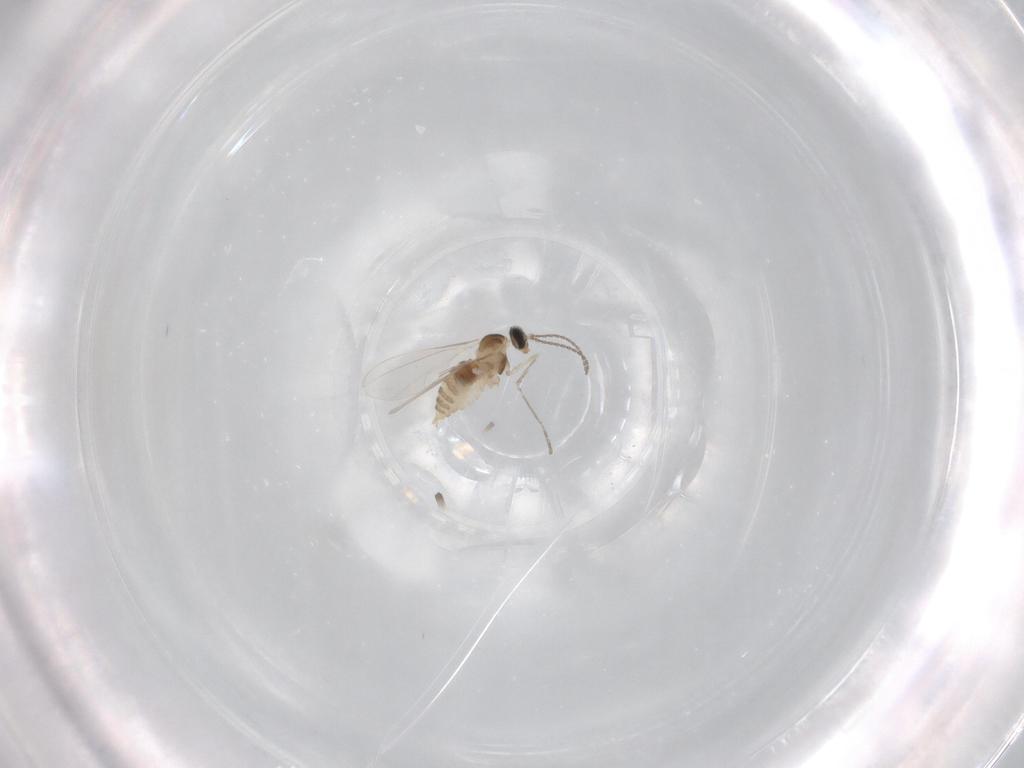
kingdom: Animalia
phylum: Arthropoda
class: Insecta
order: Diptera
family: Cecidomyiidae
